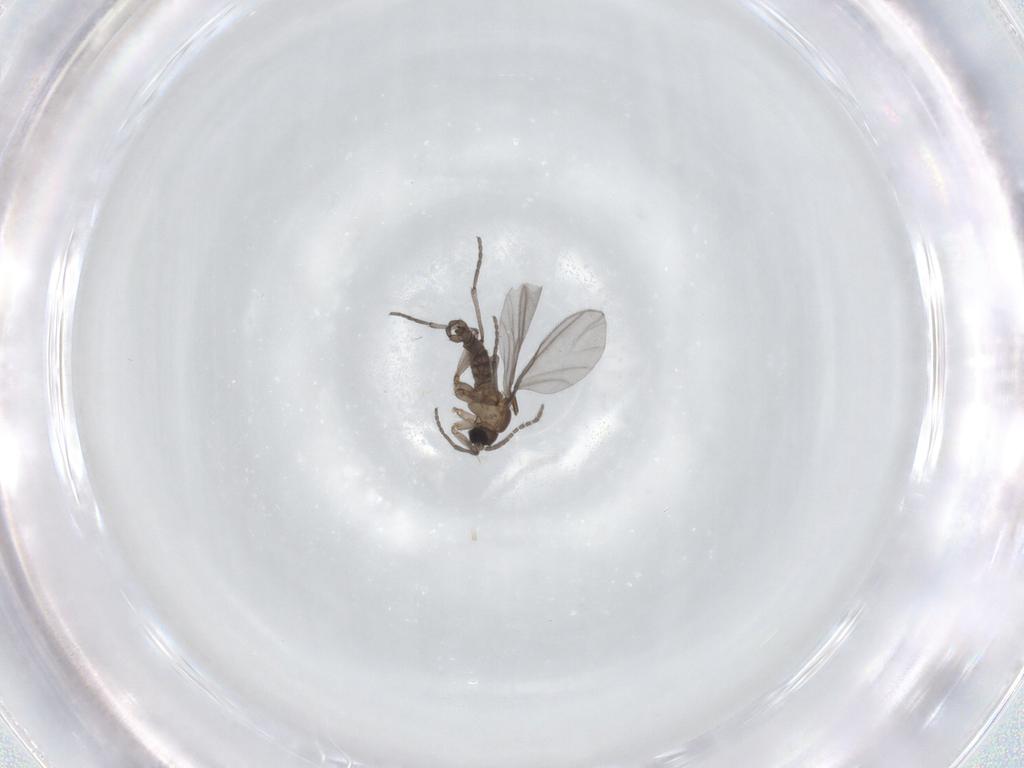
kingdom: Animalia
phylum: Arthropoda
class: Insecta
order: Diptera
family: Sciaridae
